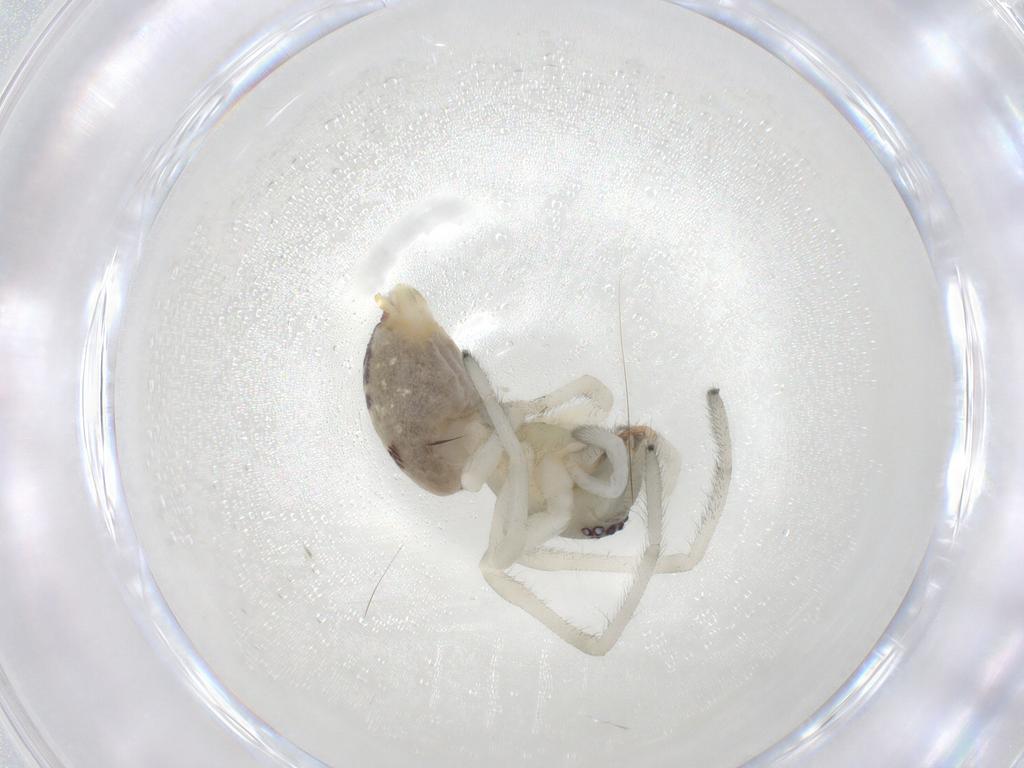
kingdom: Animalia
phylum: Arthropoda
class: Arachnida
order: Araneae
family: Cheiracanthiidae
